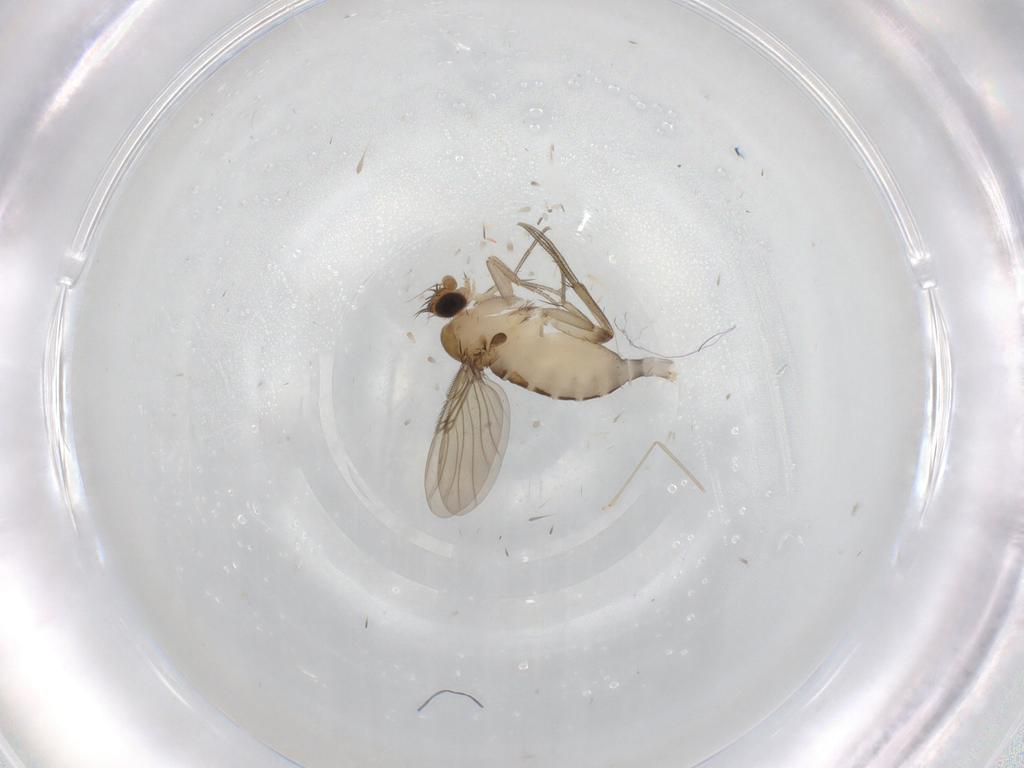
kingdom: Animalia
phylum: Arthropoda
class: Insecta
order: Diptera
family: Phoridae
